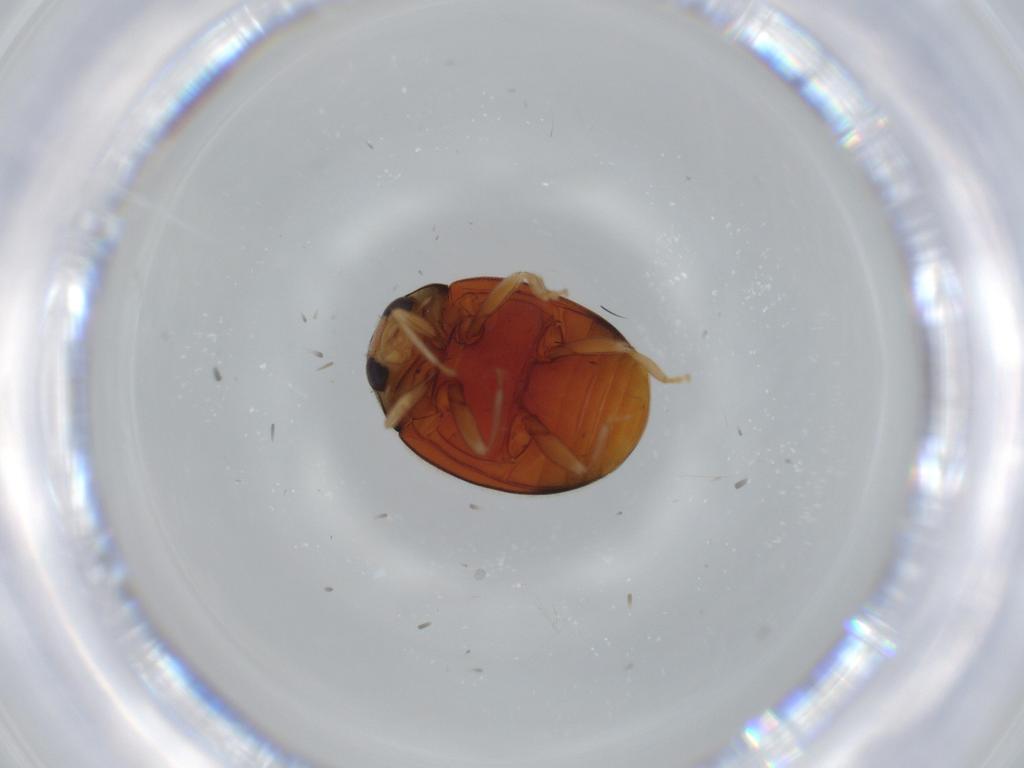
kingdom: Animalia
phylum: Arthropoda
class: Insecta
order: Coleoptera
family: Coccinellidae
